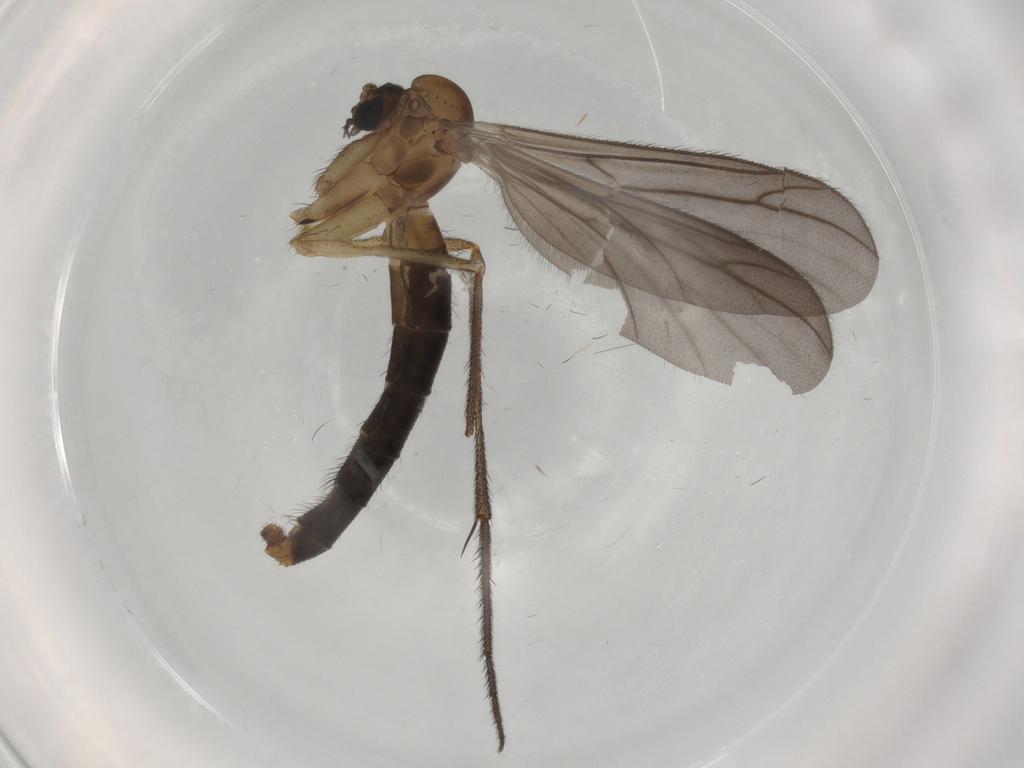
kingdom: Animalia
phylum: Arthropoda
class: Insecta
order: Diptera
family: Ditomyiidae
